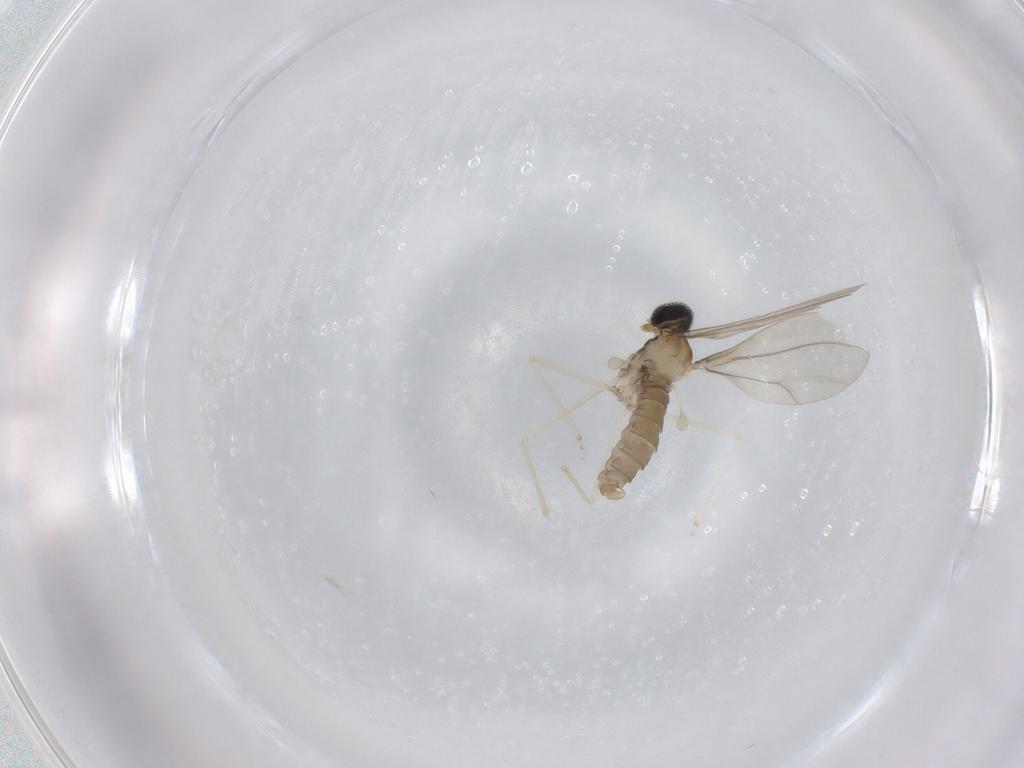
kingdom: Animalia
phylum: Arthropoda
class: Insecta
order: Diptera
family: Cecidomyiidae
